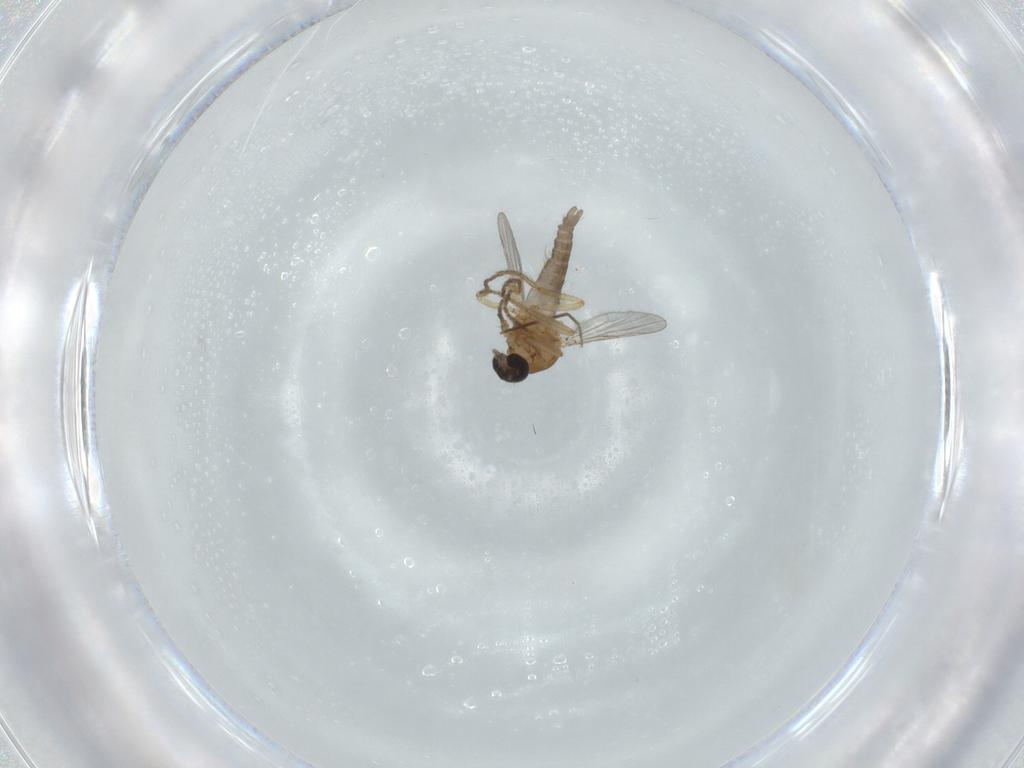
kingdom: Animalia
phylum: Arthropoda
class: Insecta
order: Diptera
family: Ceratopogonidae
